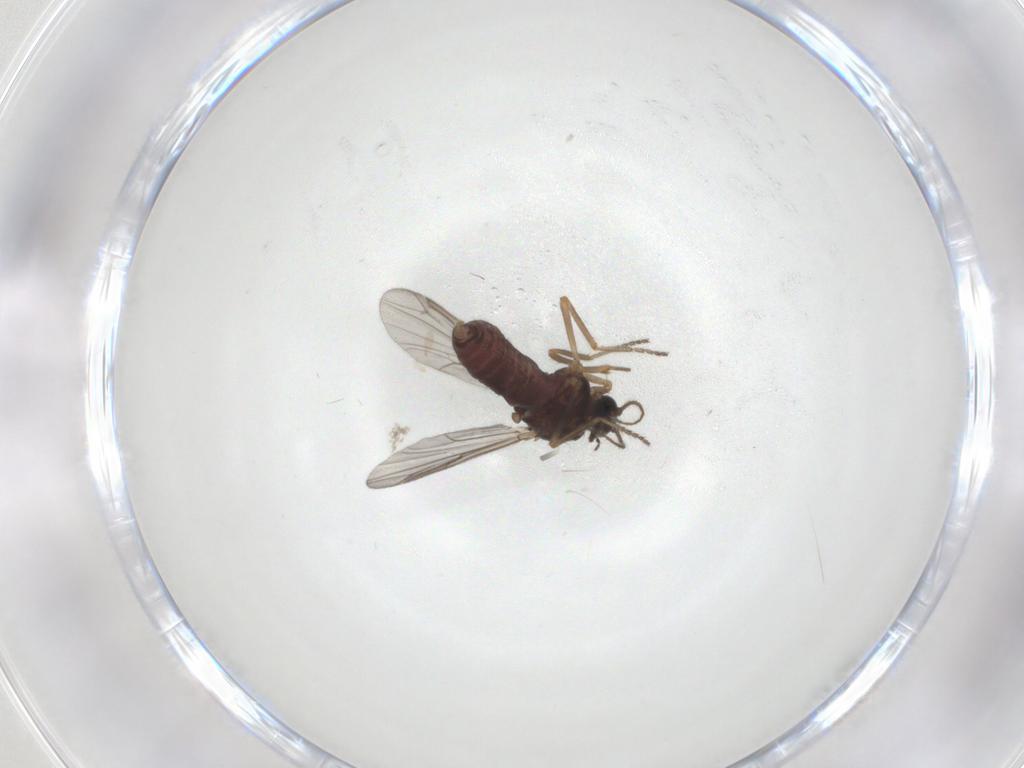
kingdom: Animalia
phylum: Arthropoda
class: Insecta
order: Diptera
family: Ceratopogonidae
